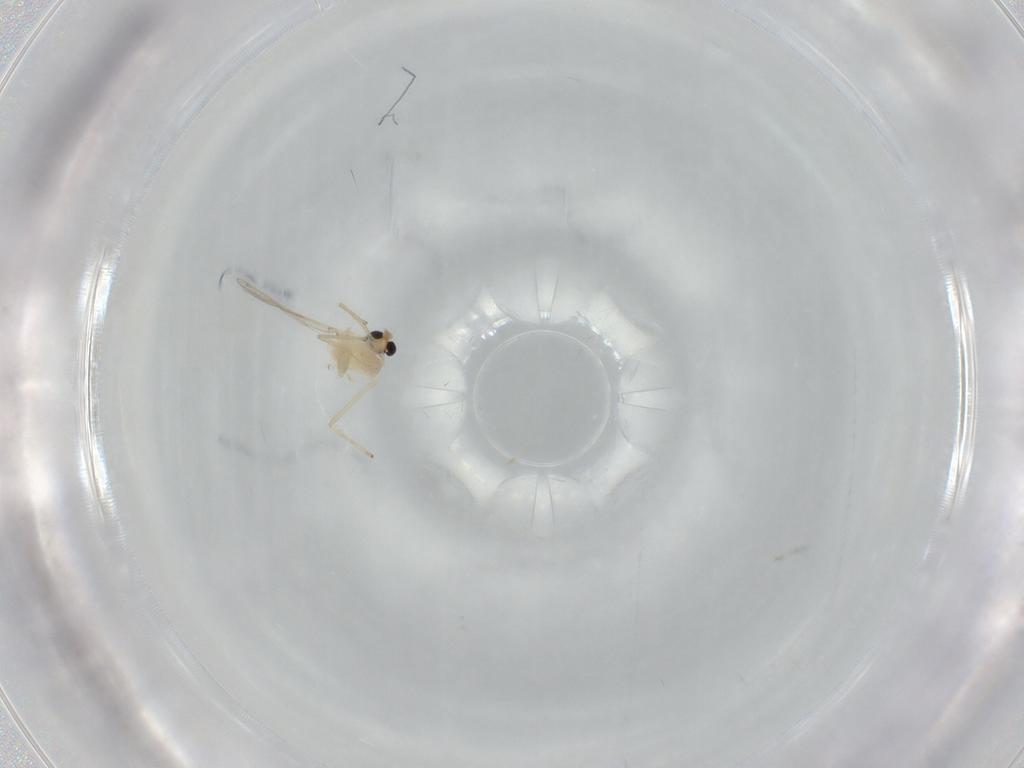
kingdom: Animalia
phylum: Arthropoda
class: Insecta
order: Diptera
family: Chironomidae
